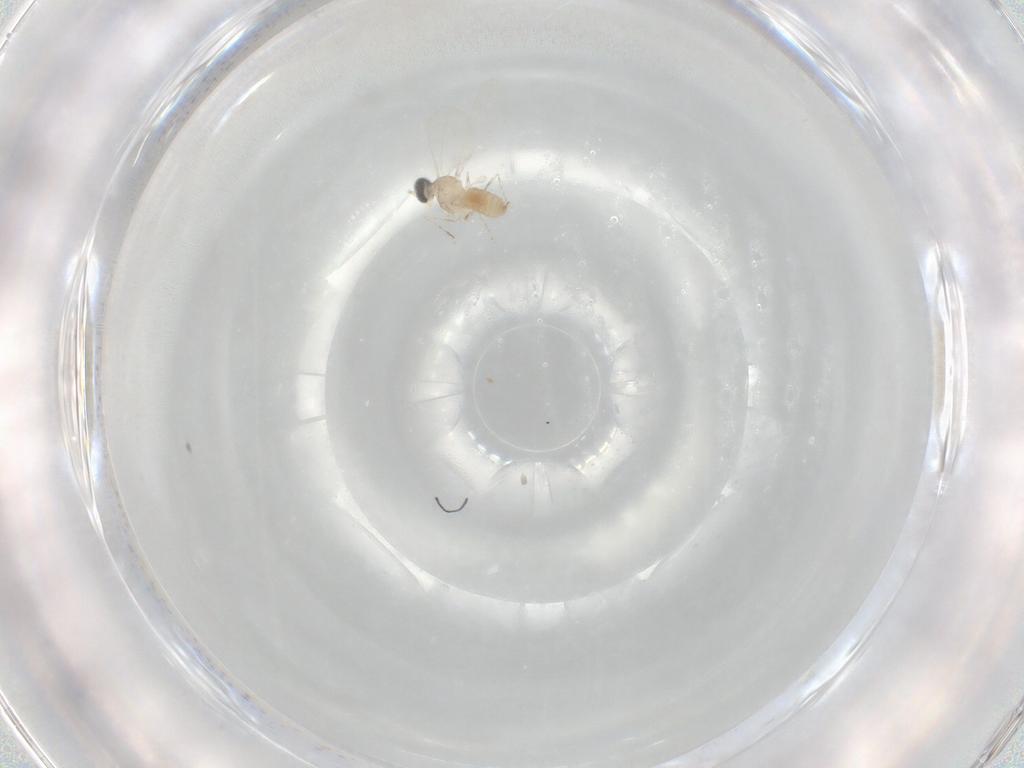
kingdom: Animalia
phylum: Arthropoda
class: Insecta
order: Diptera
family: Cecidomyiidae
